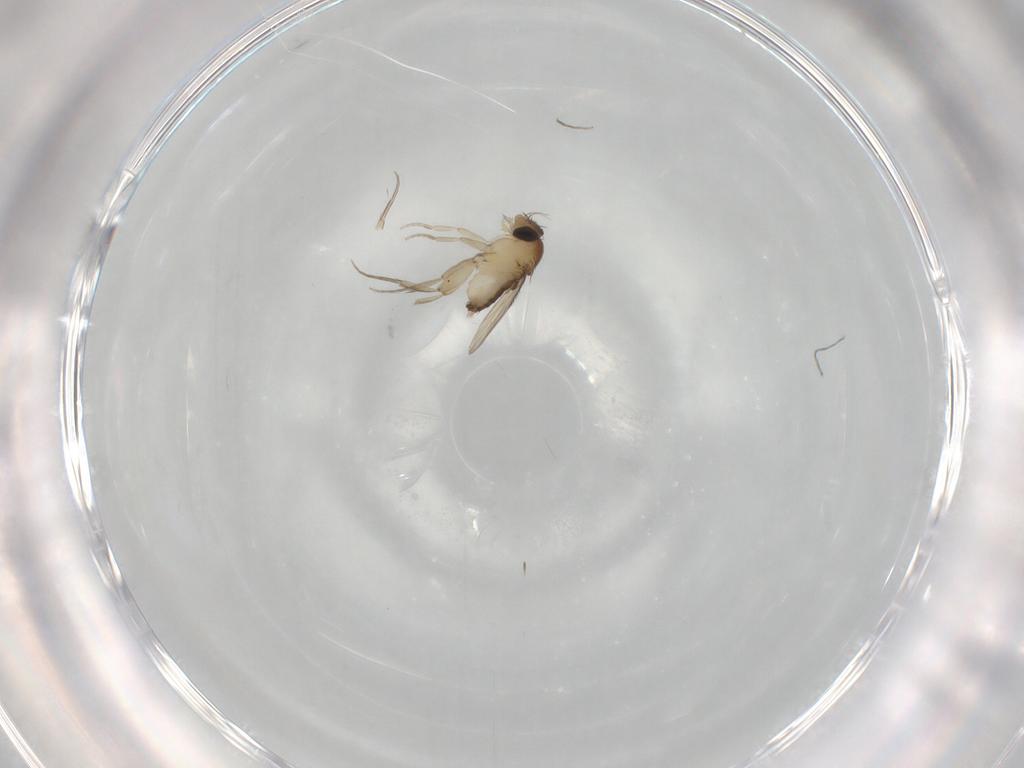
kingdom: Animalia
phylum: Arthropoda
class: Insecta
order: Diptera
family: Phoridae
